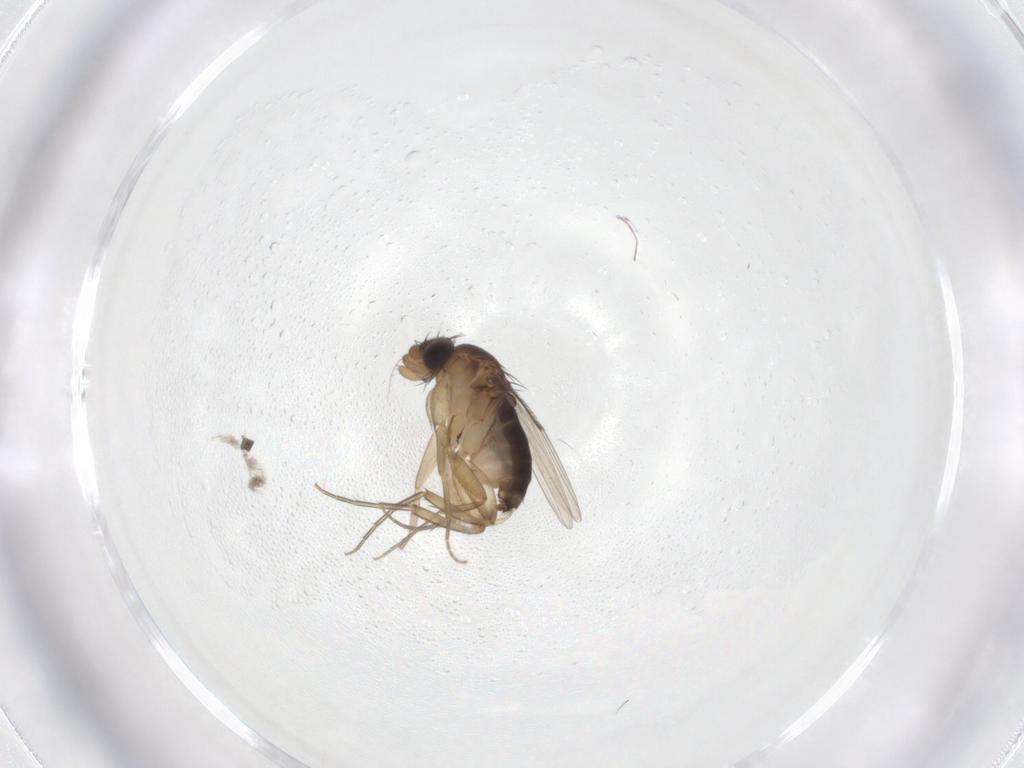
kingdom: Animalia
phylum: Arthropoda
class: Insecta
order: Diptera
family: Phoridae
